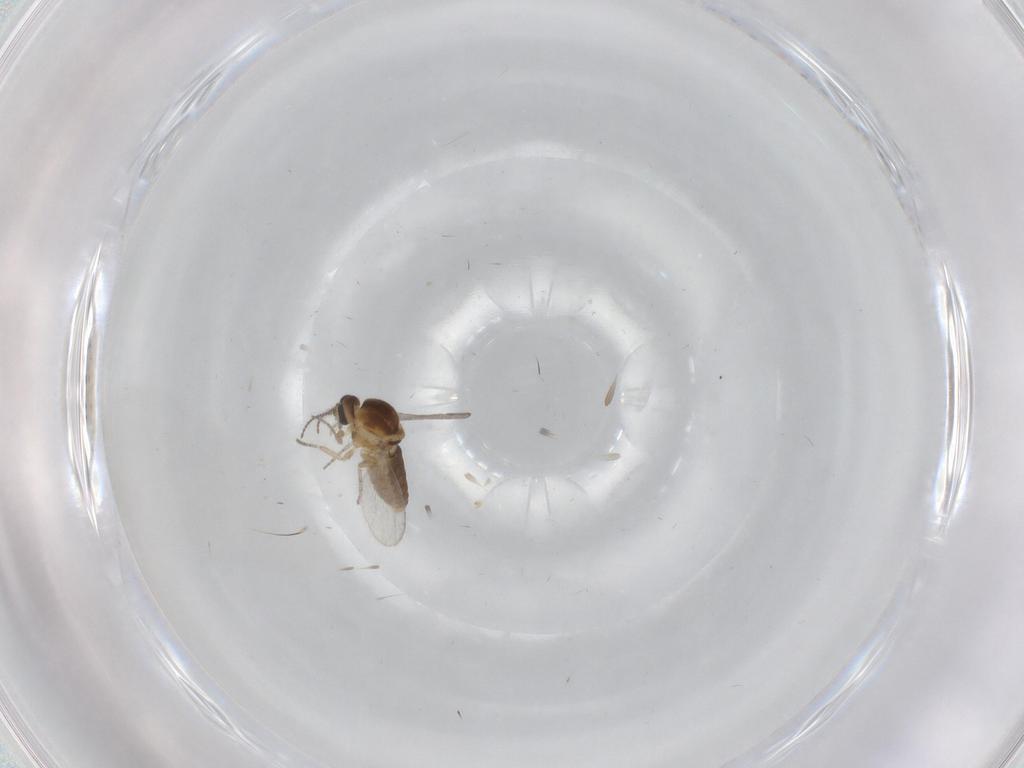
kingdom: Animalia
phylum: Arthropoda
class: Insecta
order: Diptera
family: Ceratopogonidae
